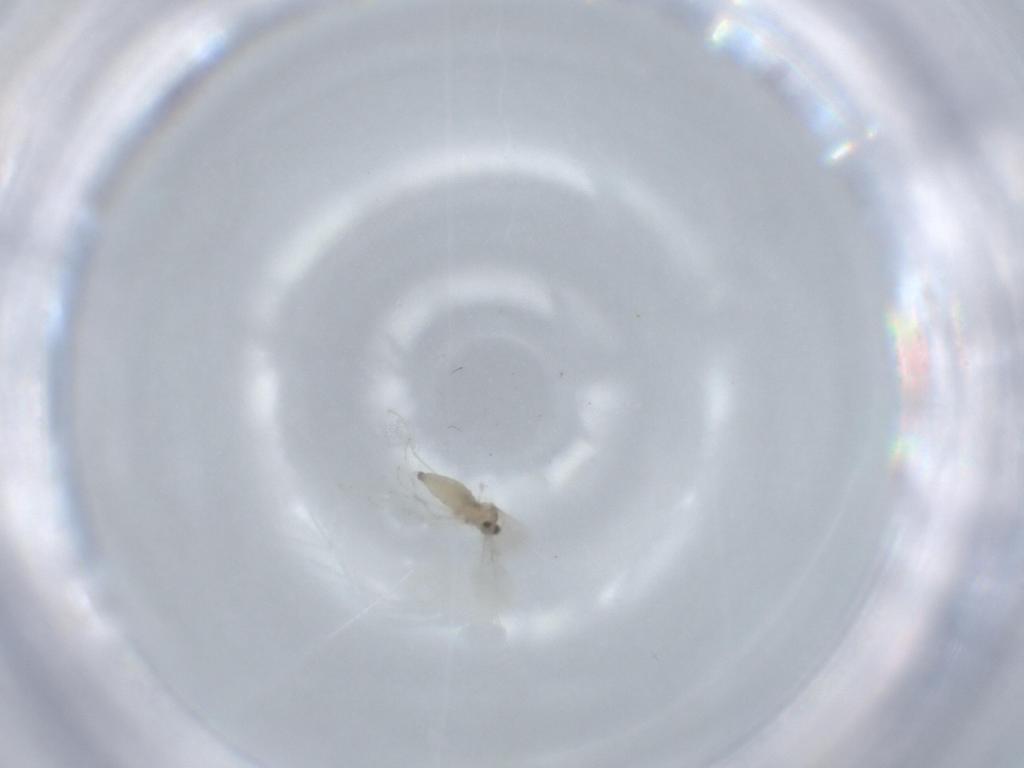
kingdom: Animalia
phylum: Arthropoda
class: Insecta
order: Diptera
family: Cecidomyiidae
